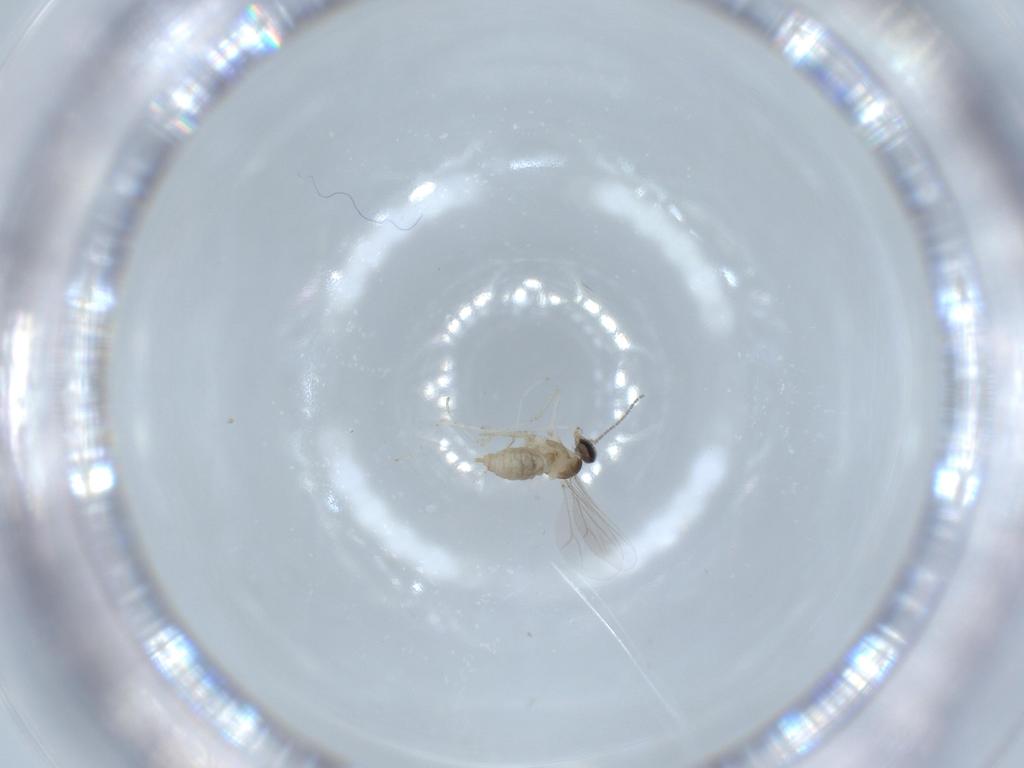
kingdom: Animalia
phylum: Arthropoda
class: Insecta
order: Diptera
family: Cecidomyiidae
